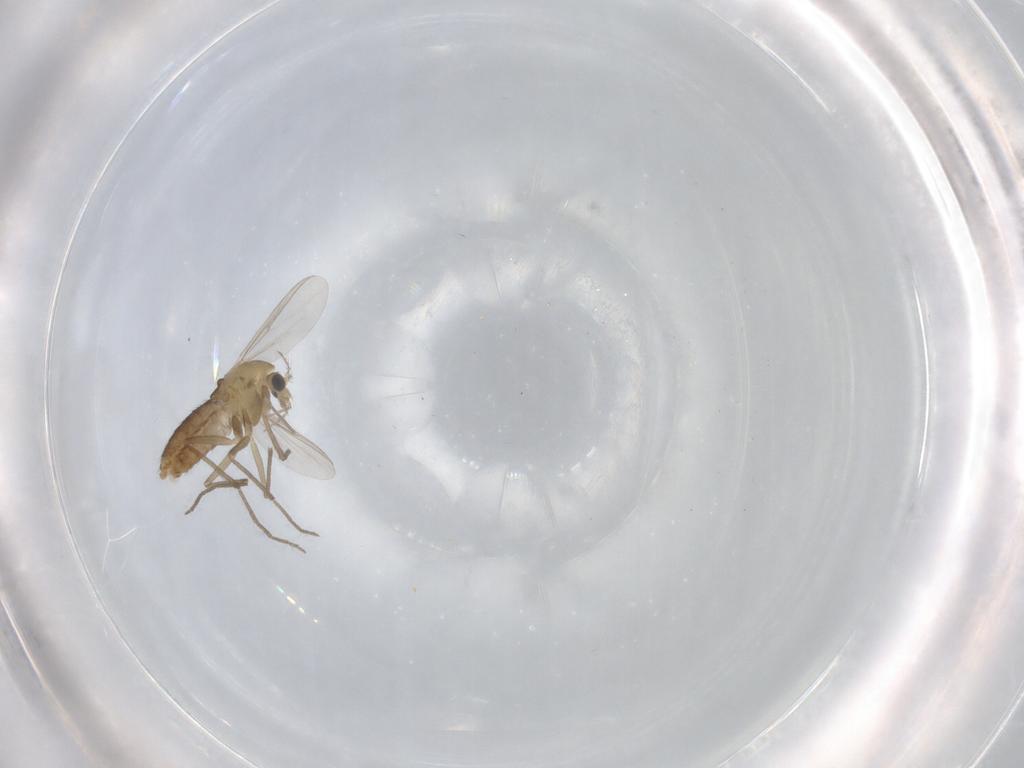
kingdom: Animalia
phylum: Arthropoda
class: Insecta
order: Diptera
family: Chironomidae
